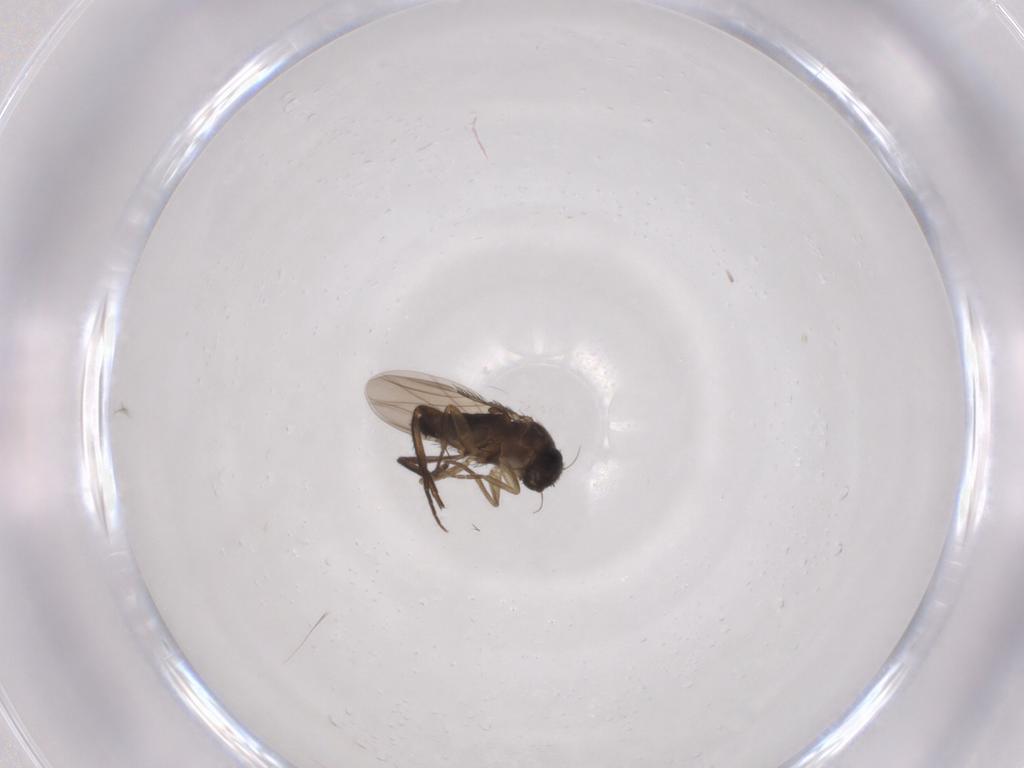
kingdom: Animalia
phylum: Arthropoda
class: Insecta
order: Diptera
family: Phoridae
